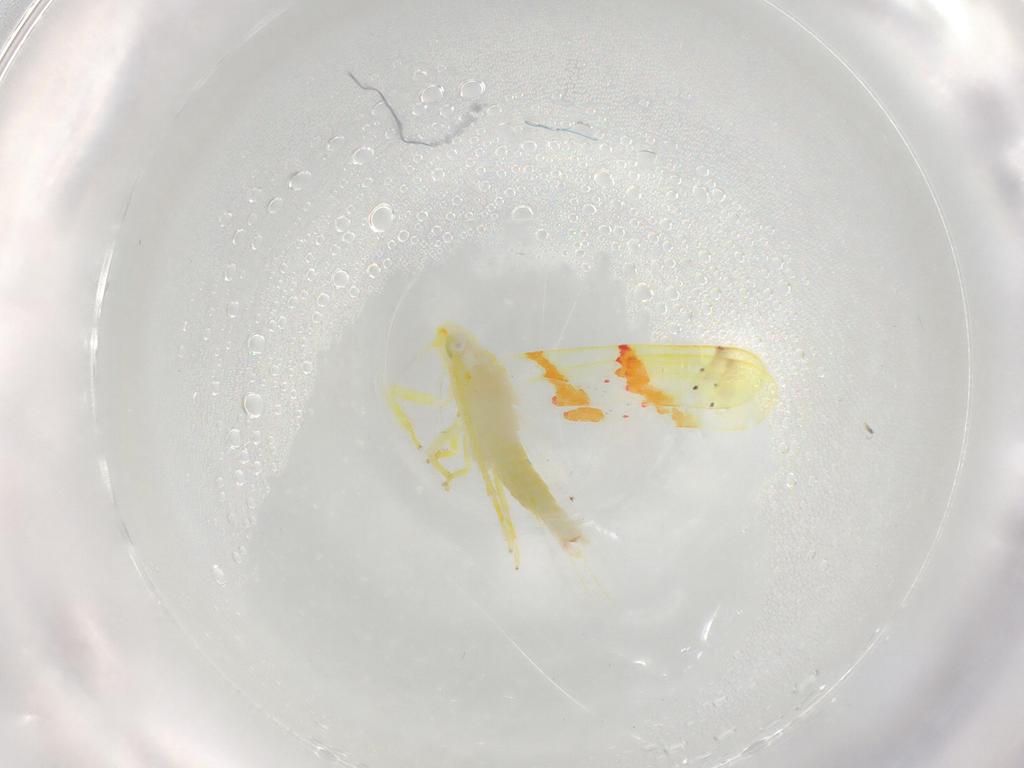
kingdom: Animalia
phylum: Arthropoda
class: Insecta
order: Hemiptera
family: Cicadellidae
